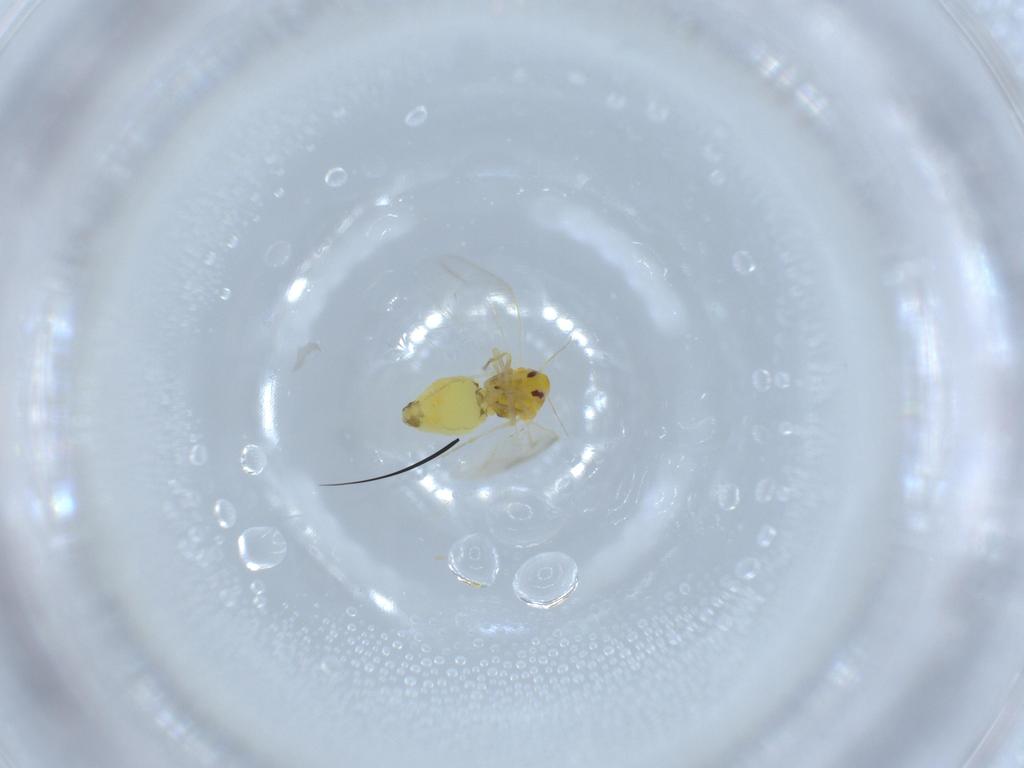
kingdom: Animalia
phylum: Arthropoda
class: Insecta
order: Hemiptera
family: Aleyrodidae
